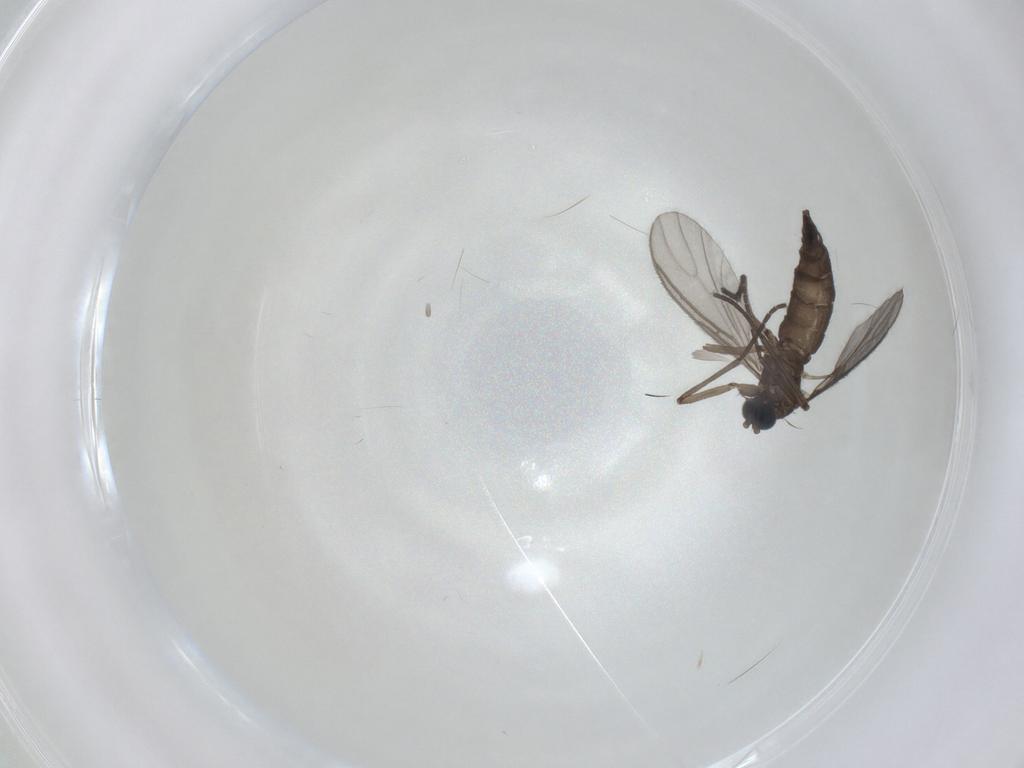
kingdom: Animalia
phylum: Arthropoda
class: Insecta
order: Diptera
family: Sciaridae
